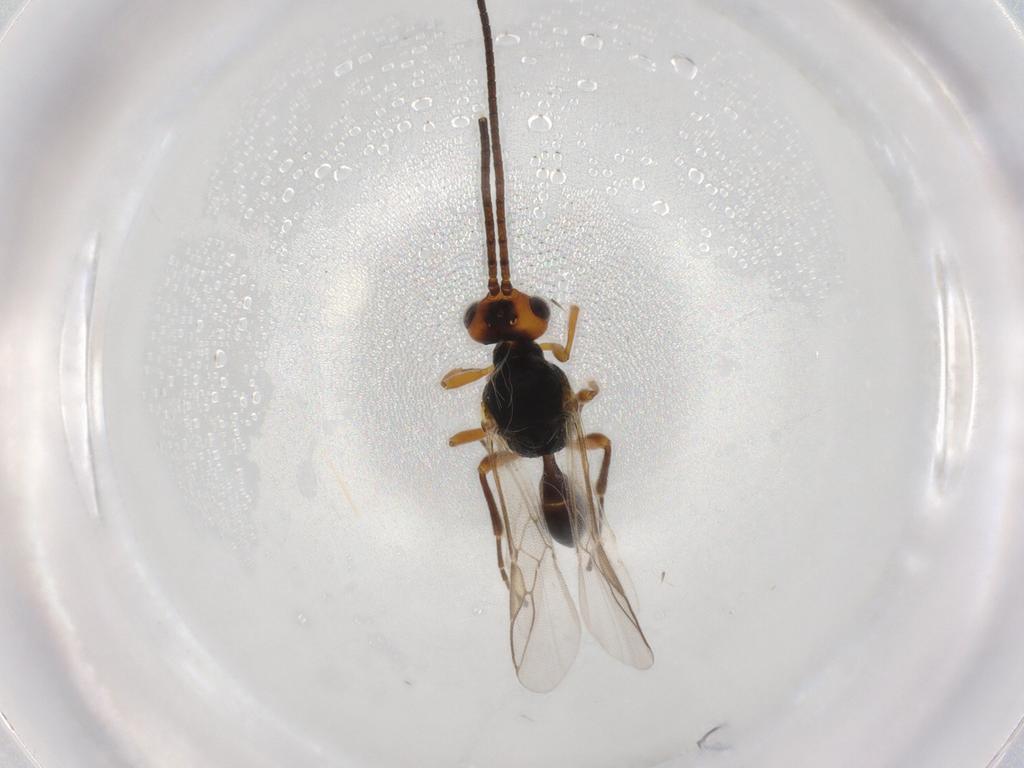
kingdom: Animalia
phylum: Arthropoda
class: Insecta
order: Hymenoptera
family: Braconidae
